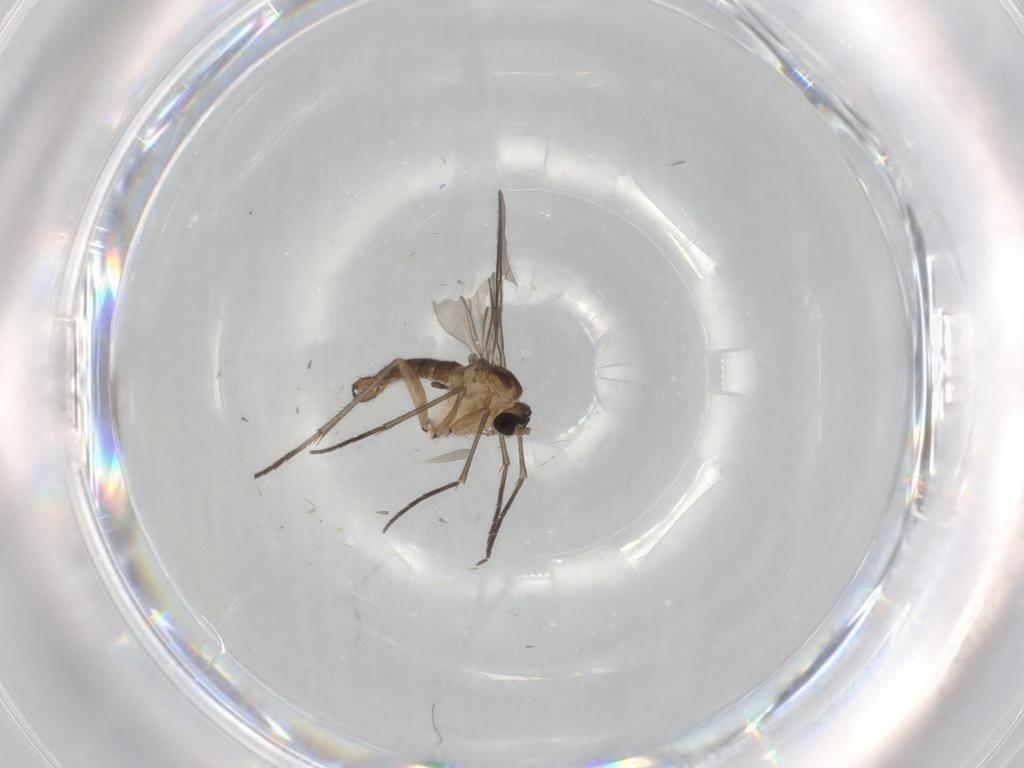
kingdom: Animalia
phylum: Arthropoda
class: Insecta
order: Diptera
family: Sciaridae
